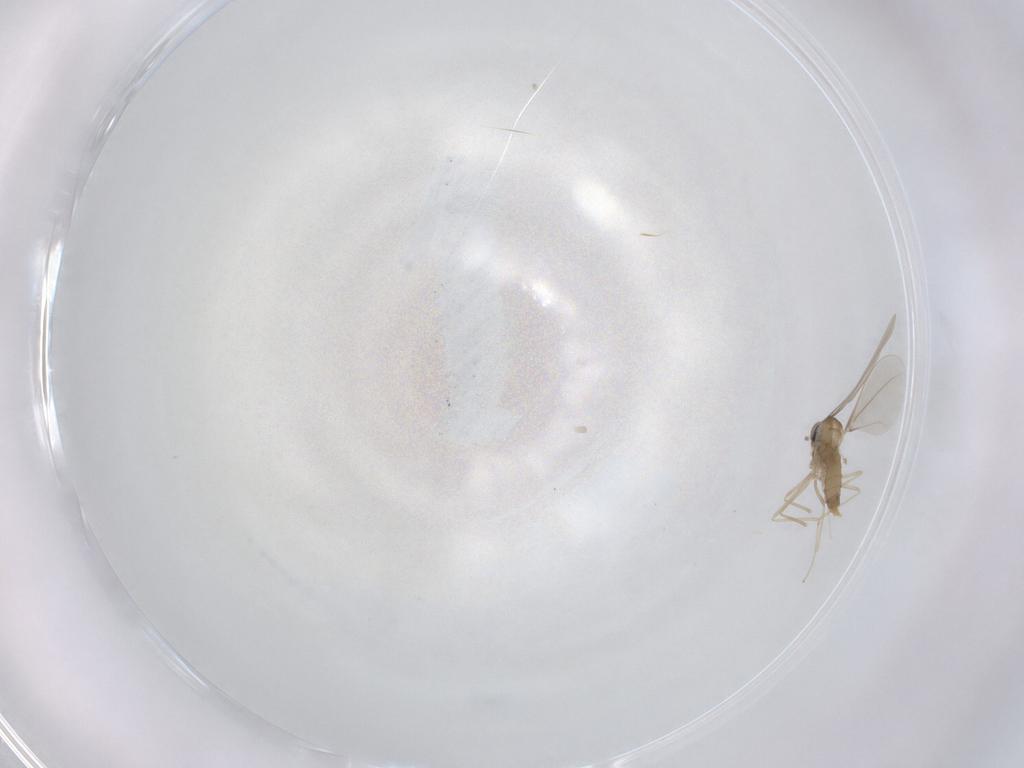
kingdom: Animalia
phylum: Arthropoda
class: Insecta
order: Diptera
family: Cecidomyiidae
